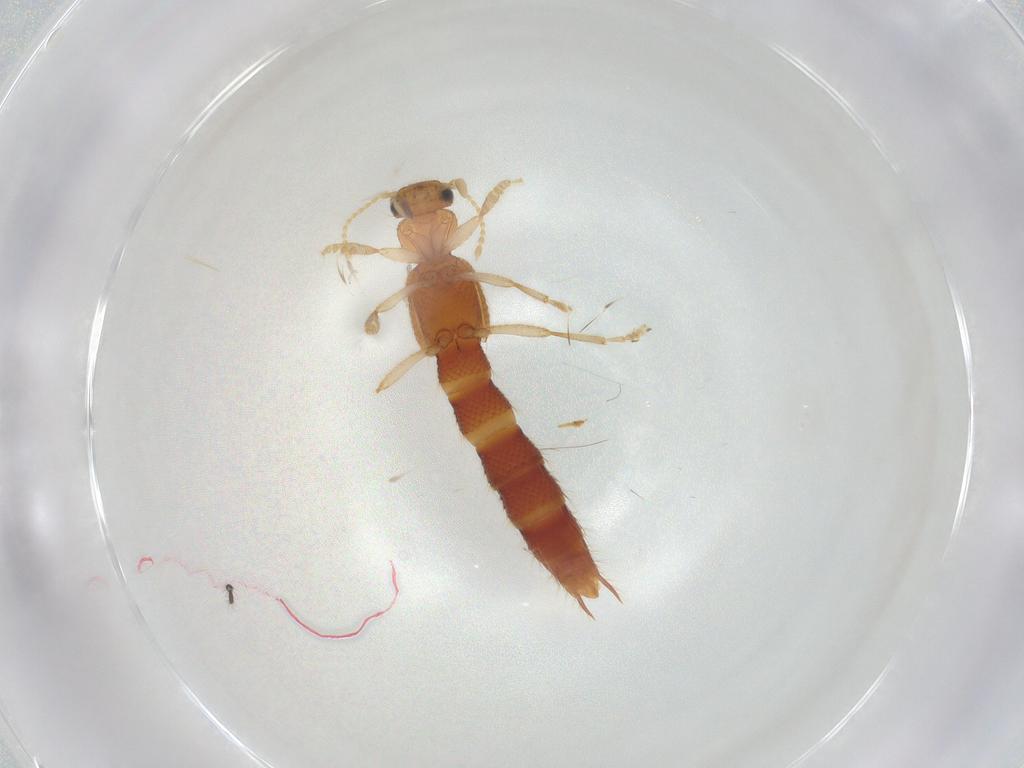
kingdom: Animalia
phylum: Arthropoda
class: Insecta
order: Coleoptera
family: Staphylinidae
